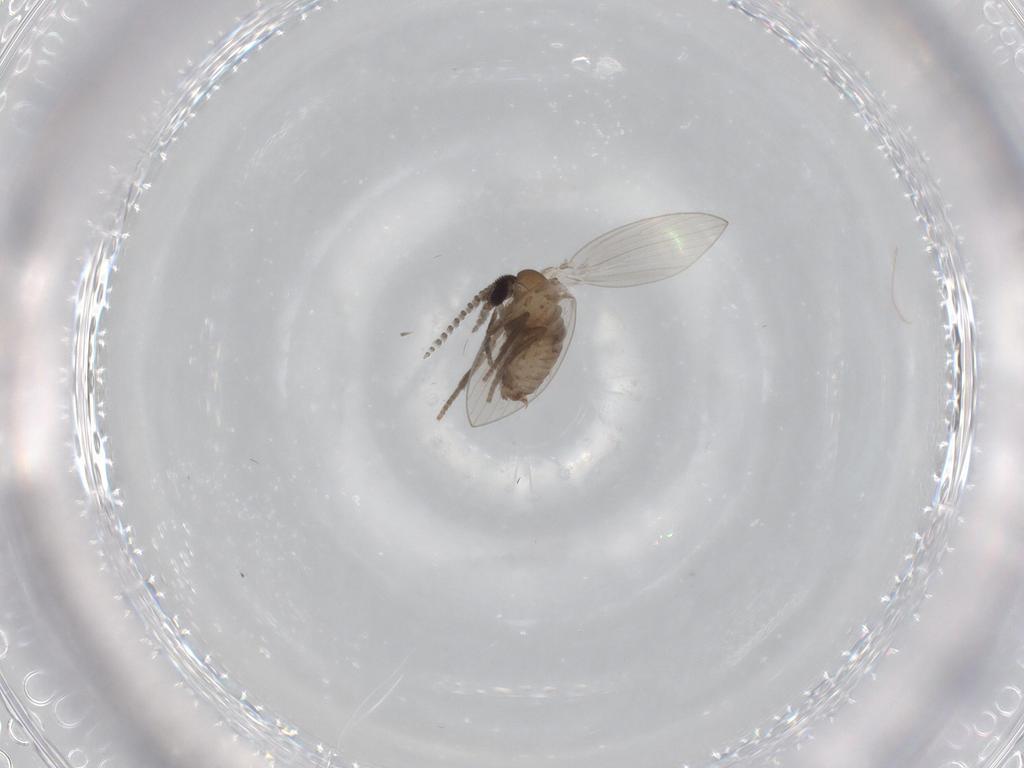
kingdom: Animalia
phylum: Arthropoda
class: Insecta
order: Diptera
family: Psychodidae
